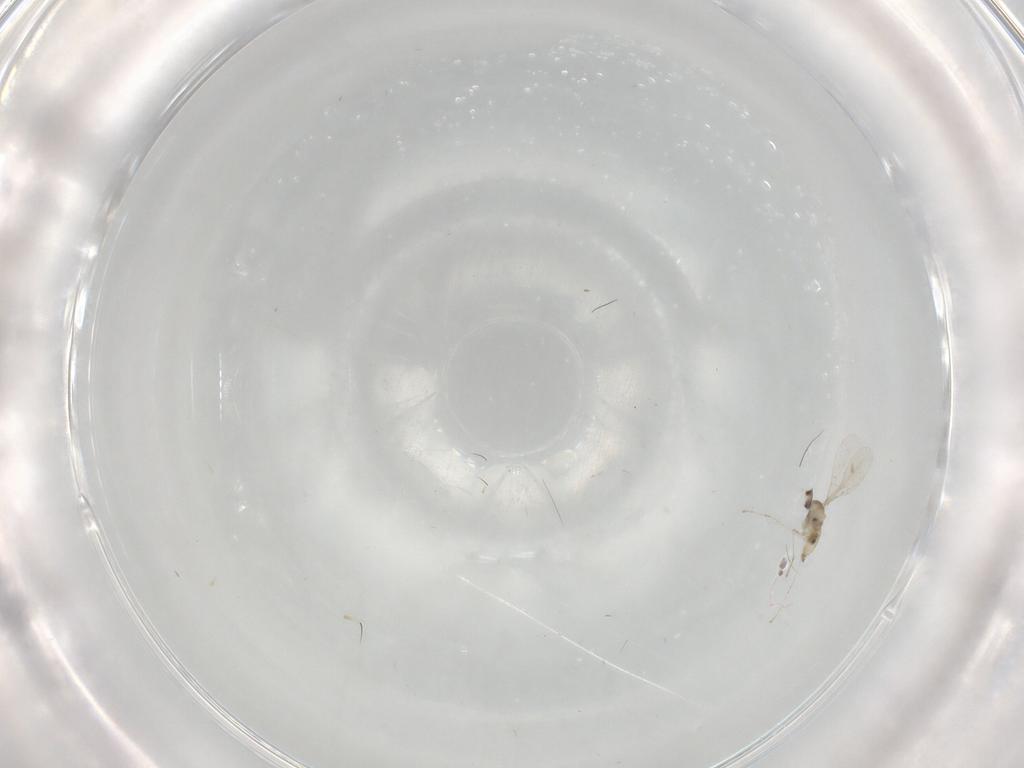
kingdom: Animalia
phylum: Arthropoda
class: Insecta
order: Diptera
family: Cecidomyiidae
